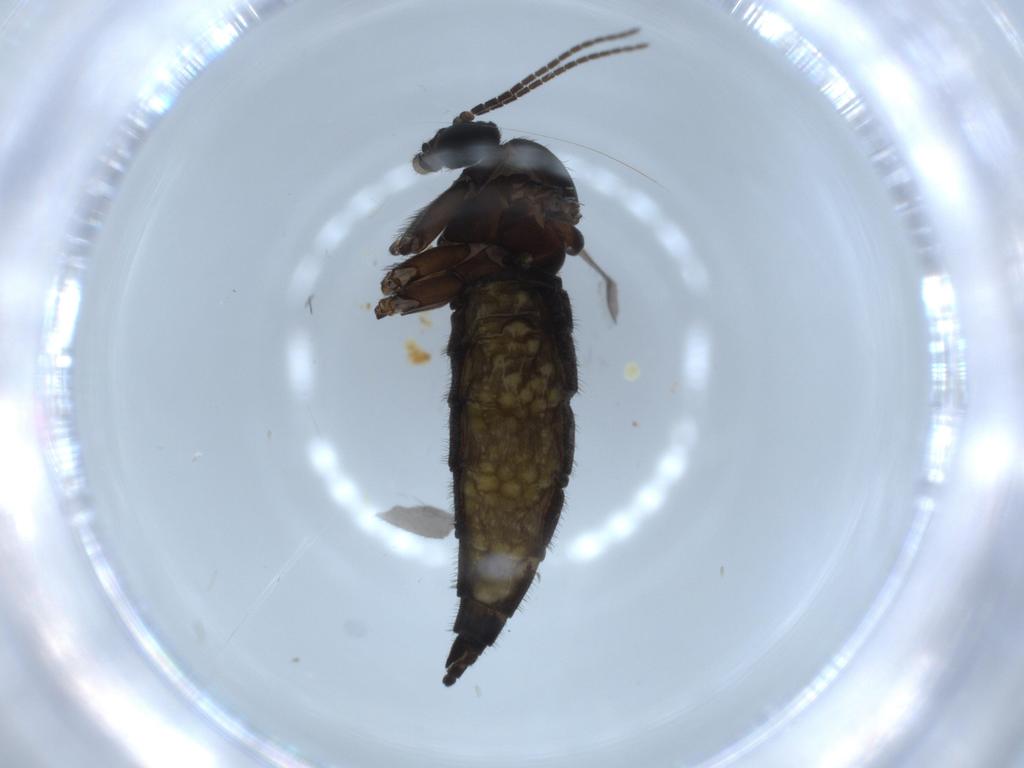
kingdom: Animalia
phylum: Arthropoda
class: Insecta
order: Diptera
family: Sciaridae
